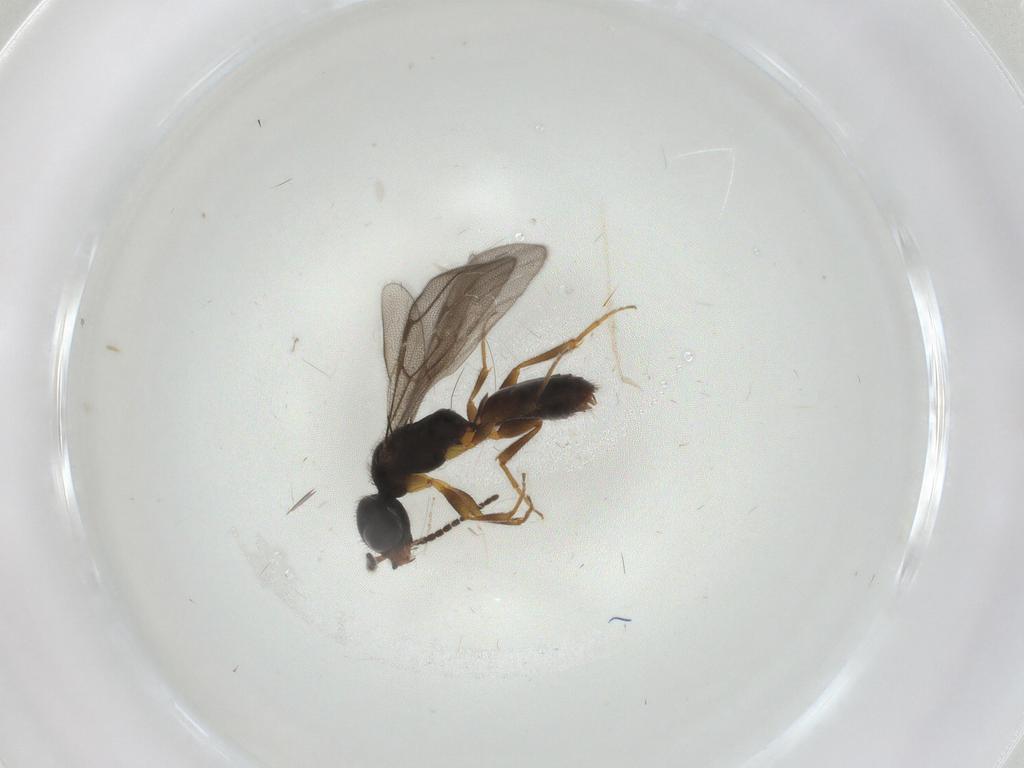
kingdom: Animalia
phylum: Arthropoda
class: Insecta
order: Hymenoptera
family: Bethylidae
